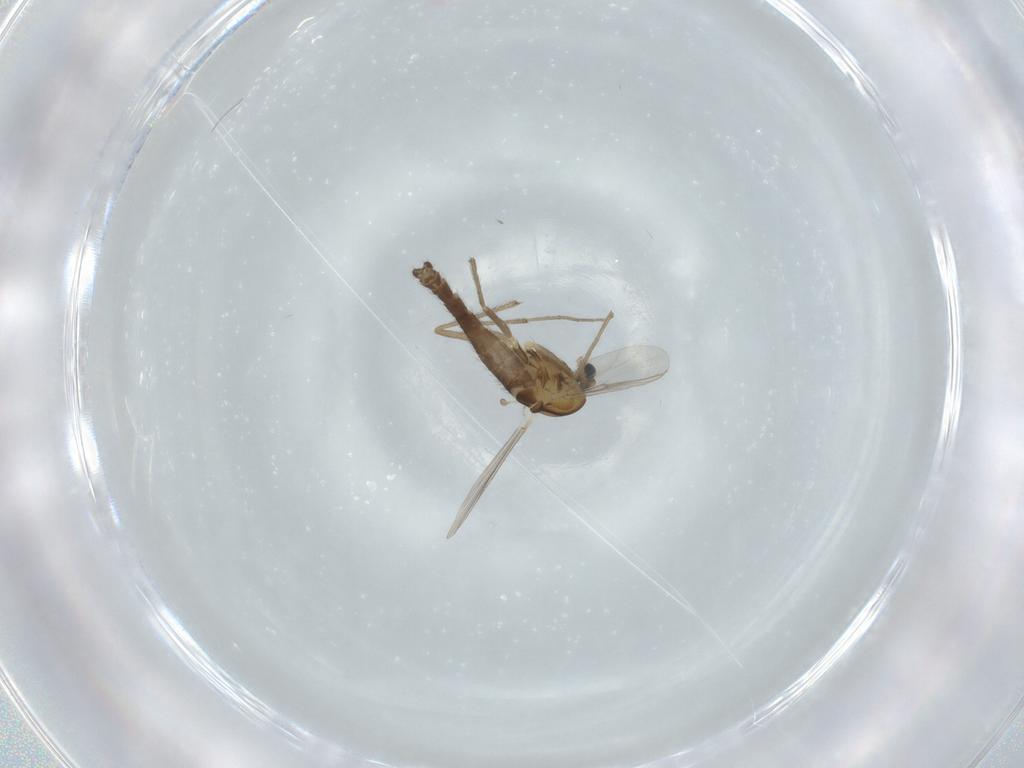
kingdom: Animalia
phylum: Arthropoda
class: Insecta
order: Diptera
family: Chironomidae
